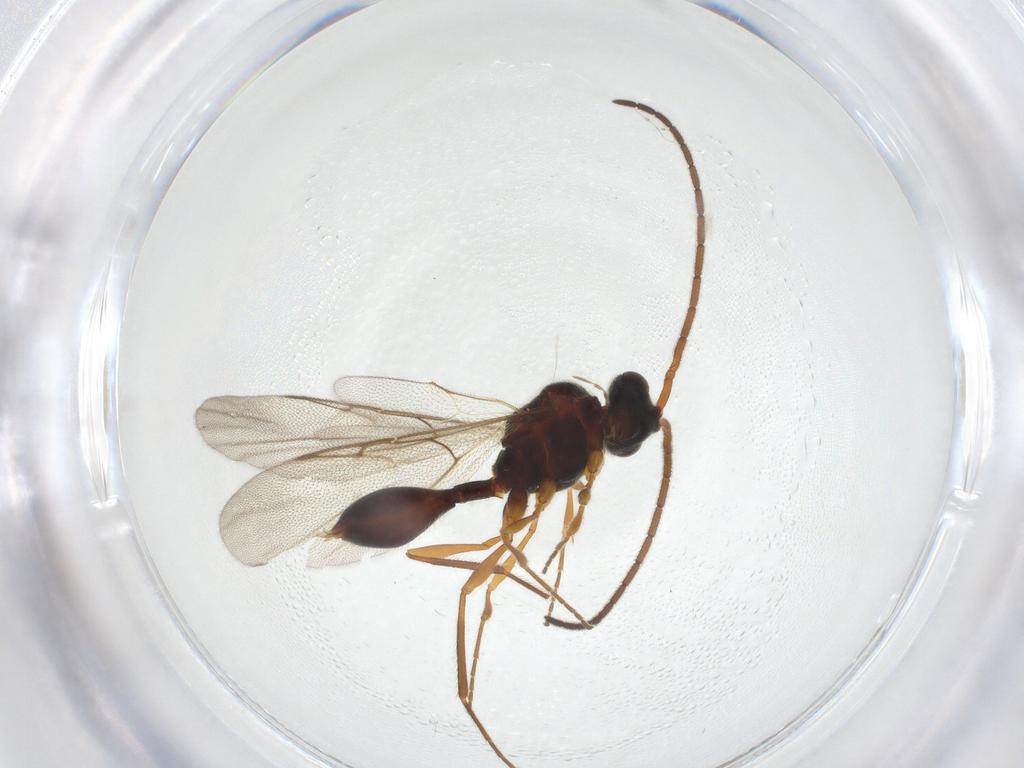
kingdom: Animalia
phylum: Arthropoda
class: Insecta
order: Hymenoptera
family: Diapriidae
